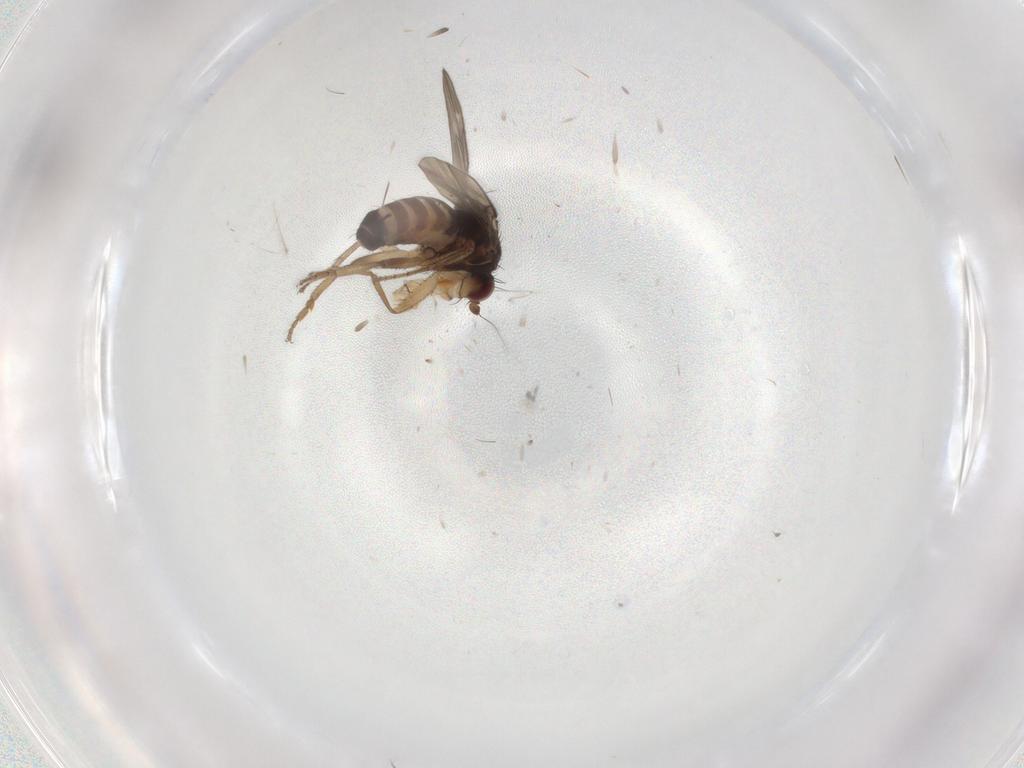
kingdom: Animalia
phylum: Arthropoda
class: Insecta
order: Diptera
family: Sphaeroceridae
